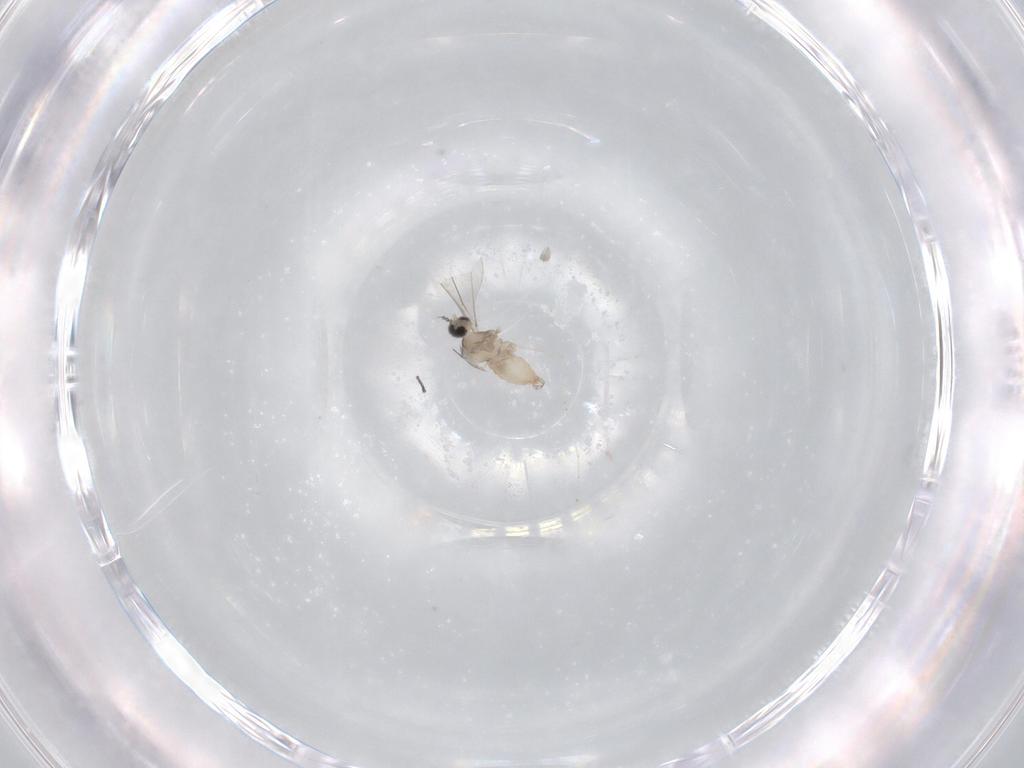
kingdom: Animalia
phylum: Arthropoda
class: Insecta
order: Diptera
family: Cecidomyiidae
